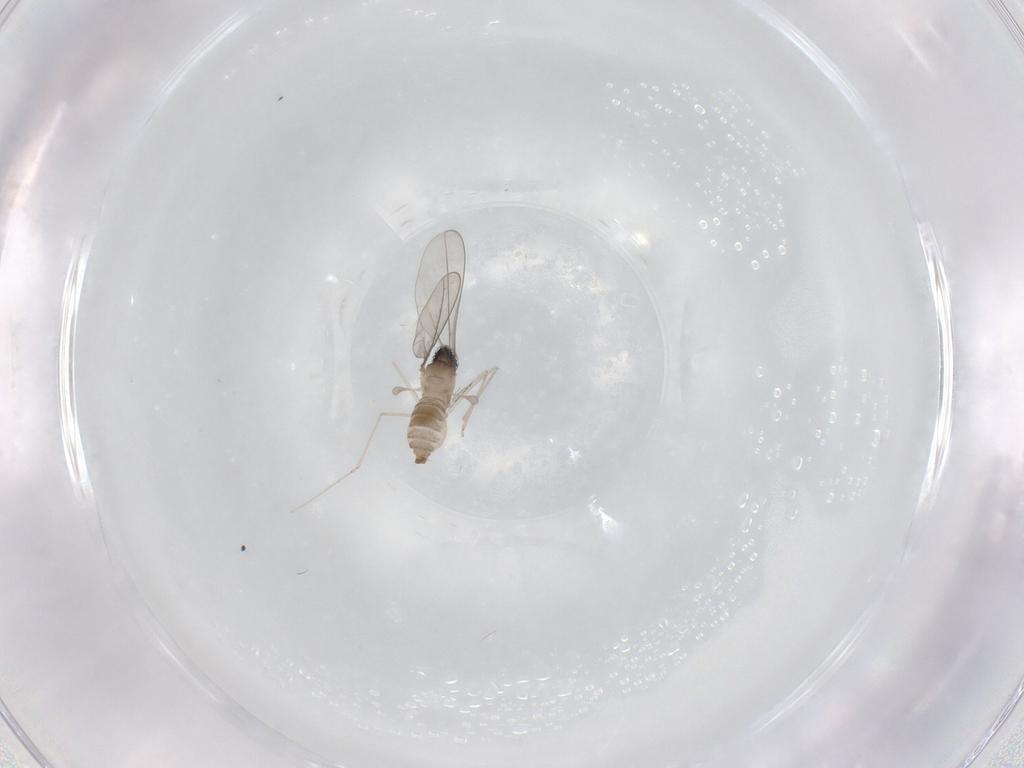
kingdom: Animalia
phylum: Arthropoda
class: Insecta
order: Diptera
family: Cecidomyiidae
